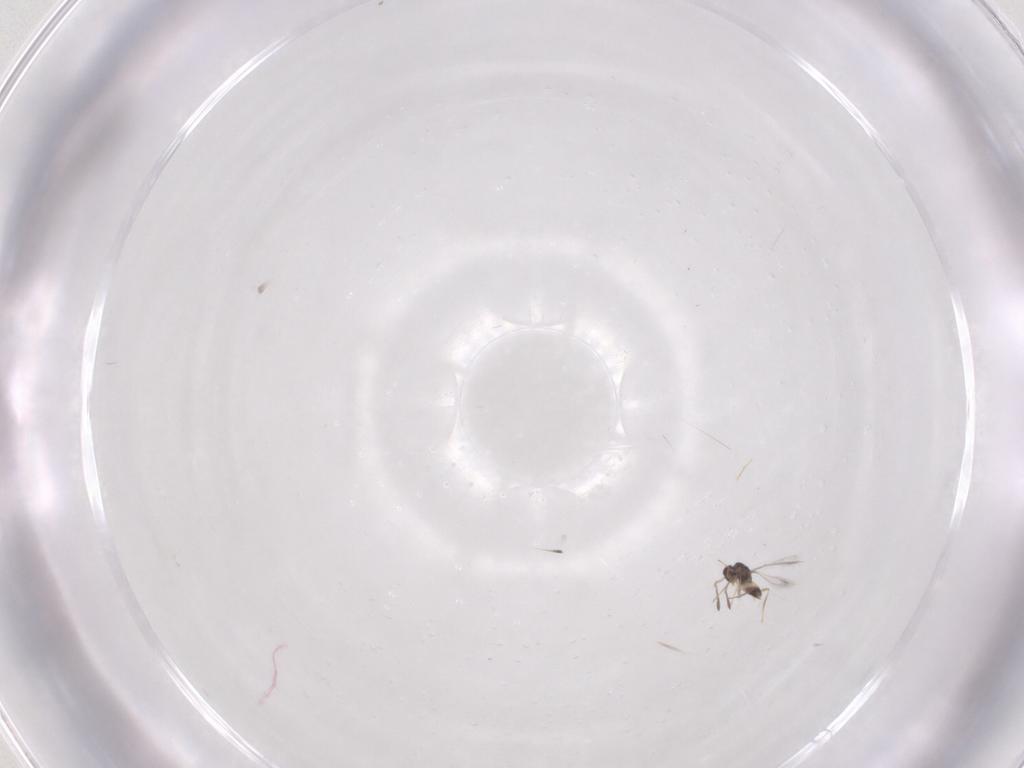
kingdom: Animalia
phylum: Arthropoda
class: Insecta
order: Hymenoptera
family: Mymaridae
